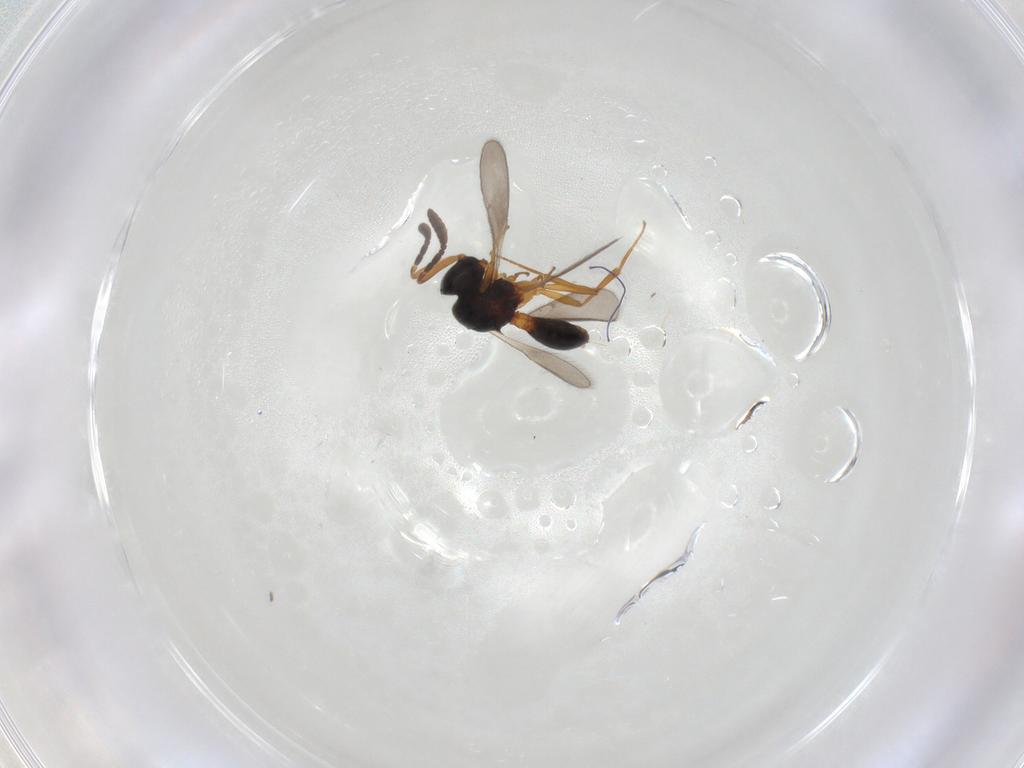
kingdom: Animalia
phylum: Arthropoda
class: Insecta
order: Hymenoptera
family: Scelionidae
